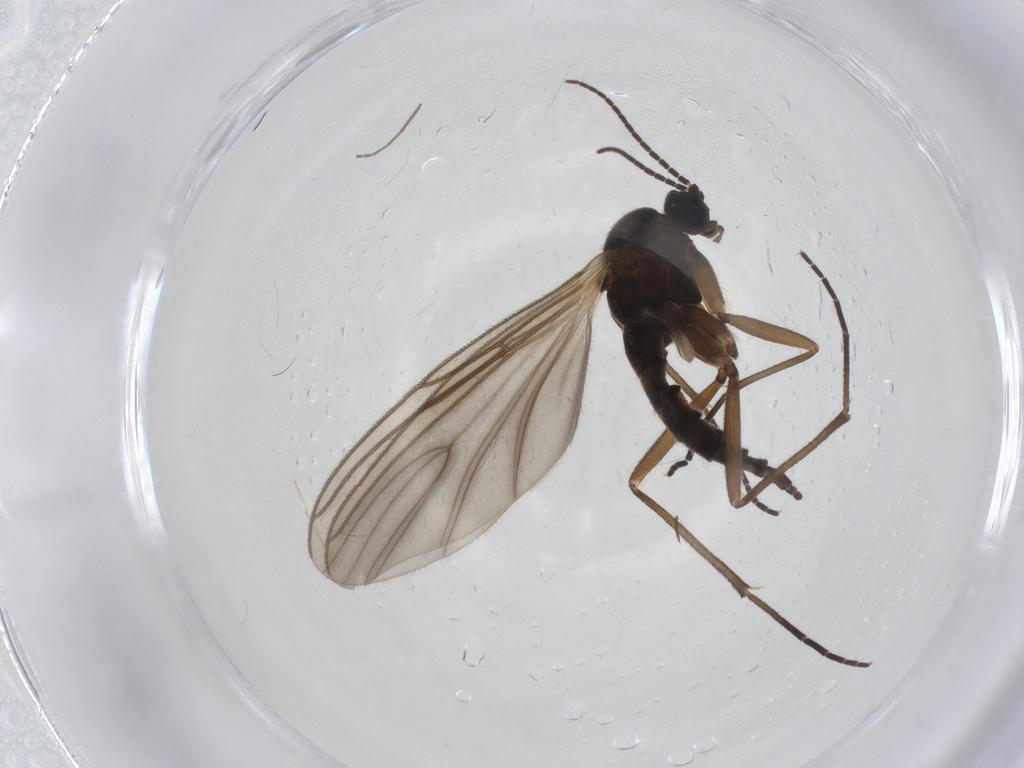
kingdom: Animalia
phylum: Arthropoda
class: Insecta
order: Diptera
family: Sciaridae
